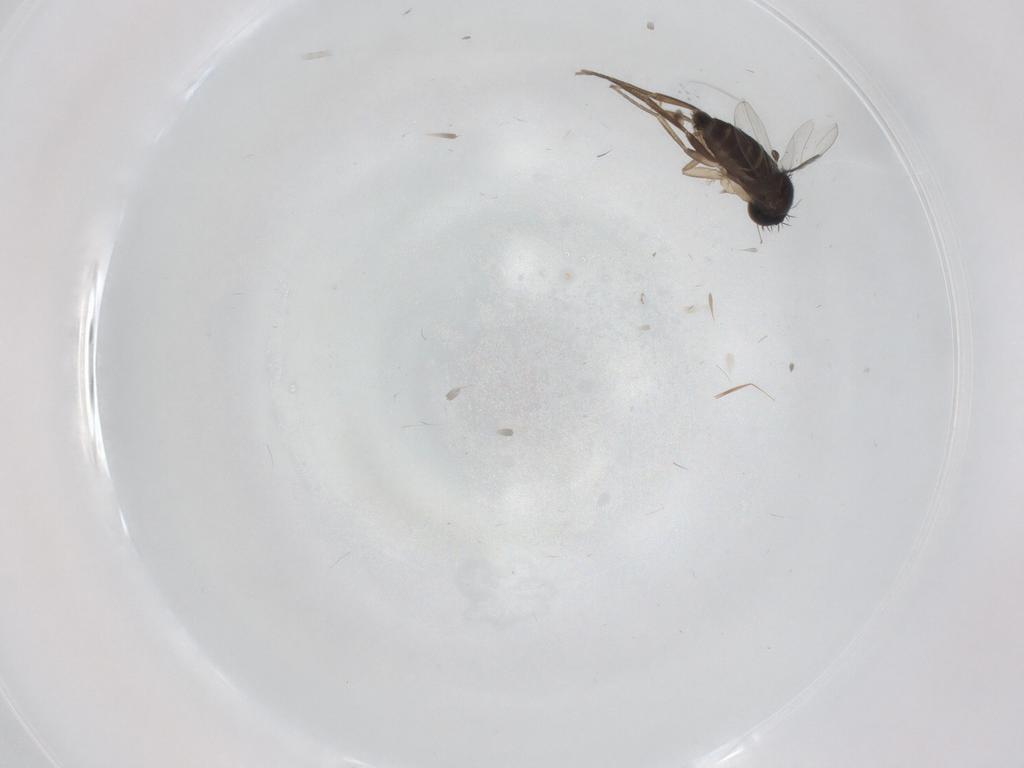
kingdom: Animalia
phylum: Arthropoda
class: Insecta
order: Diptera
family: Phoridae
